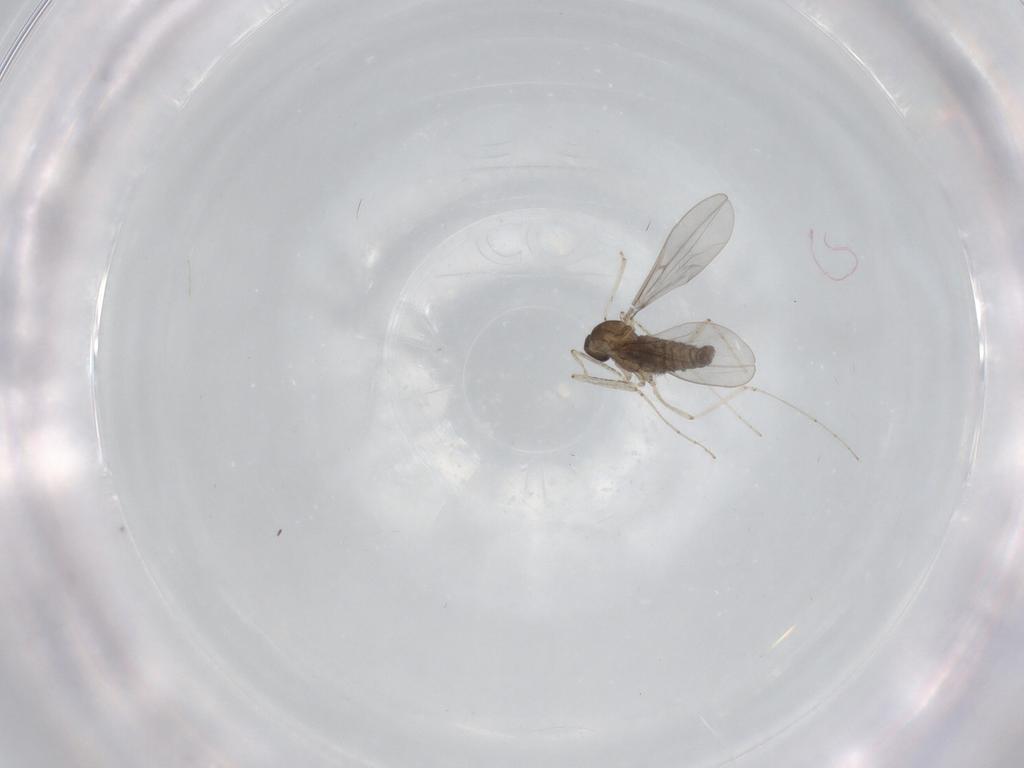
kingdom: Animalia
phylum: Arthropoda
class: Insecta
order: Diptera
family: Cecidomyiidae
